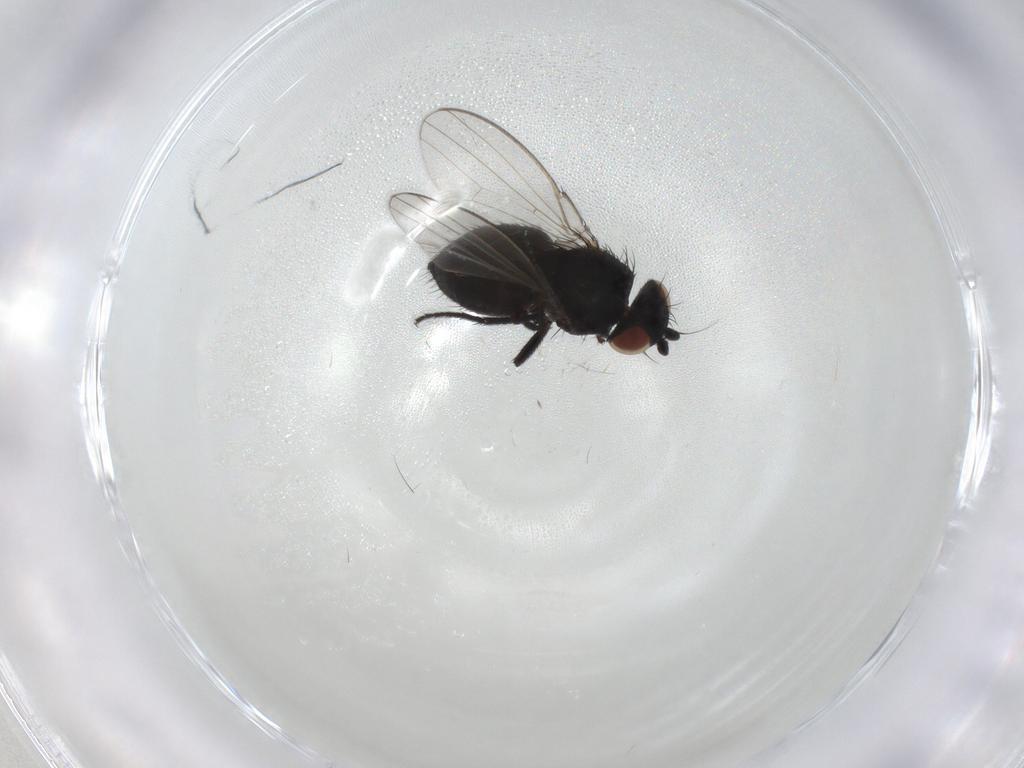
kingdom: Animalia
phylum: Arthropoda
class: Insecta
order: Diptera
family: Milichiidae
